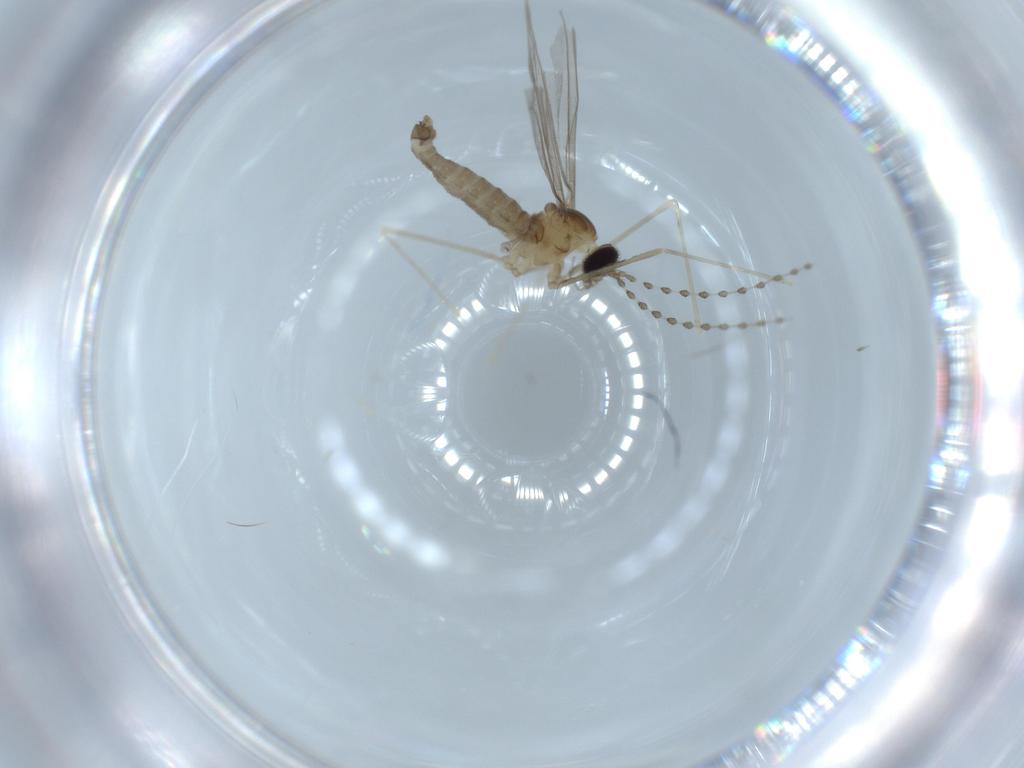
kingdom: Animalia
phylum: Arthropoda
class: Insecta
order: Diptera
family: Cecidomyiidae
